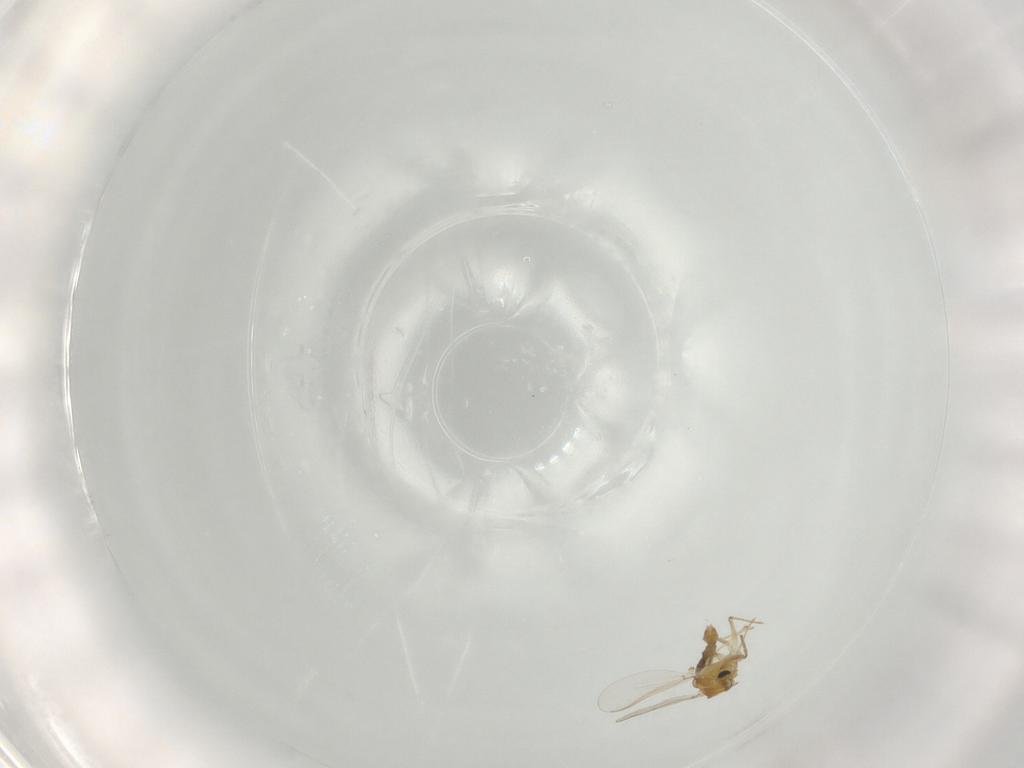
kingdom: Animalia
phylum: Arthropoda
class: Insecta
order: Diptera
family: Chironomidae
